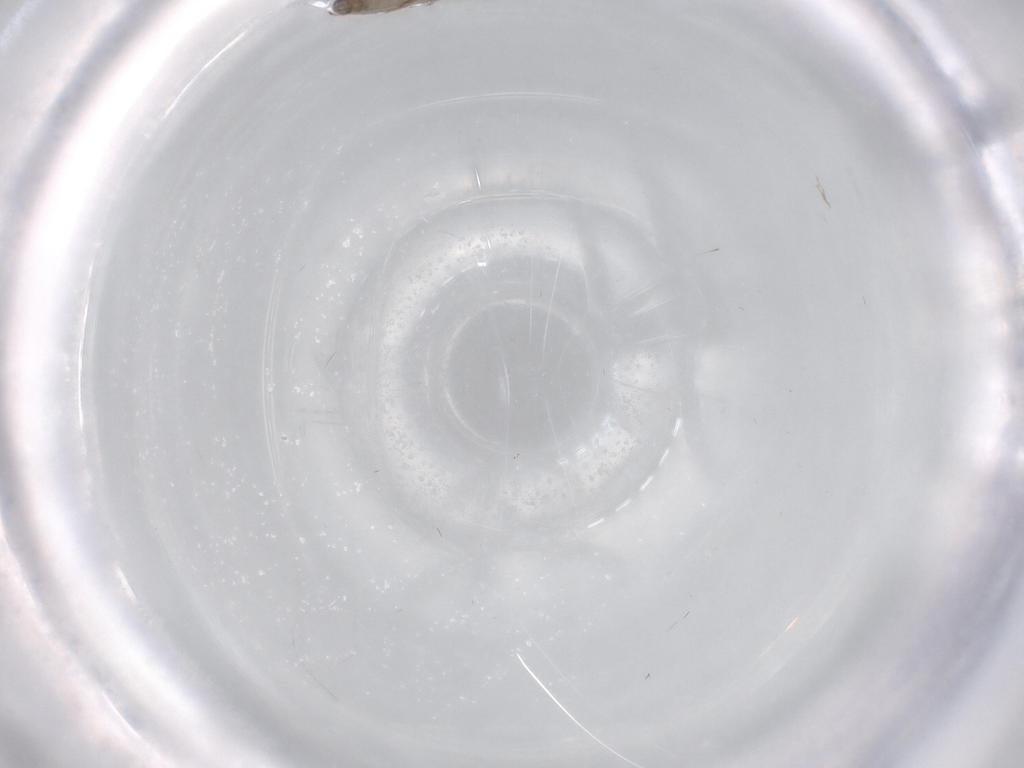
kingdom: Animalia
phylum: Arthropoda
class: Insecta
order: Diptera
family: Chironomidae
